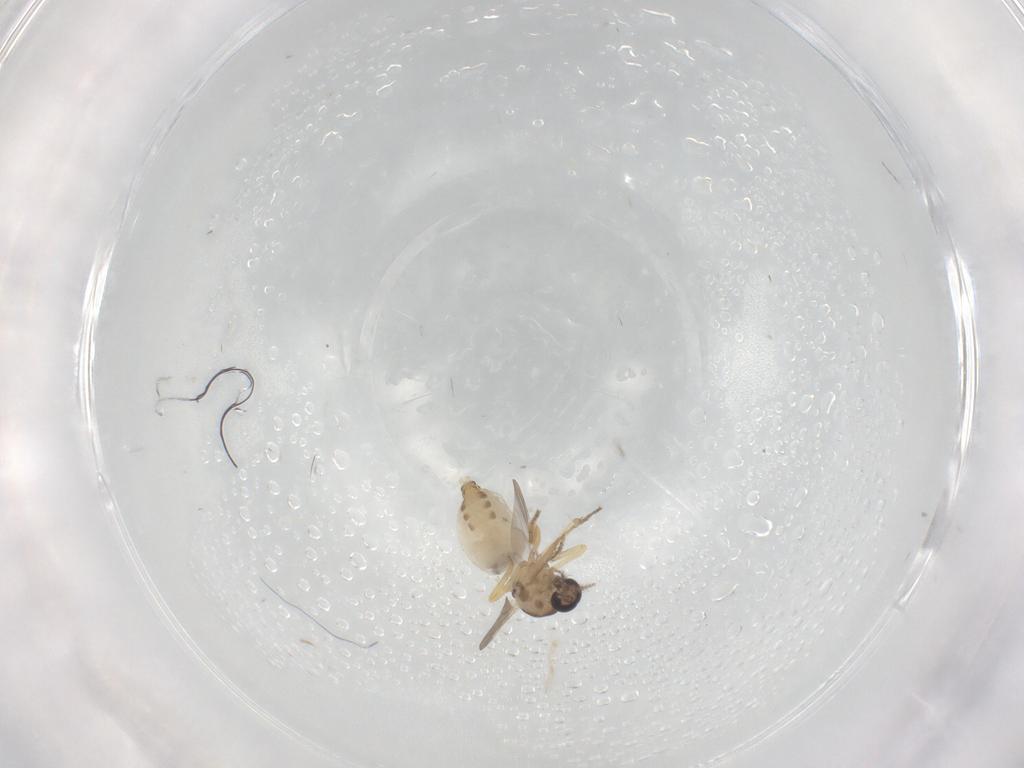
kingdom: Animalia
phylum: Arthropoda
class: Insecta
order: Diptera
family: Ceratopogonidae
